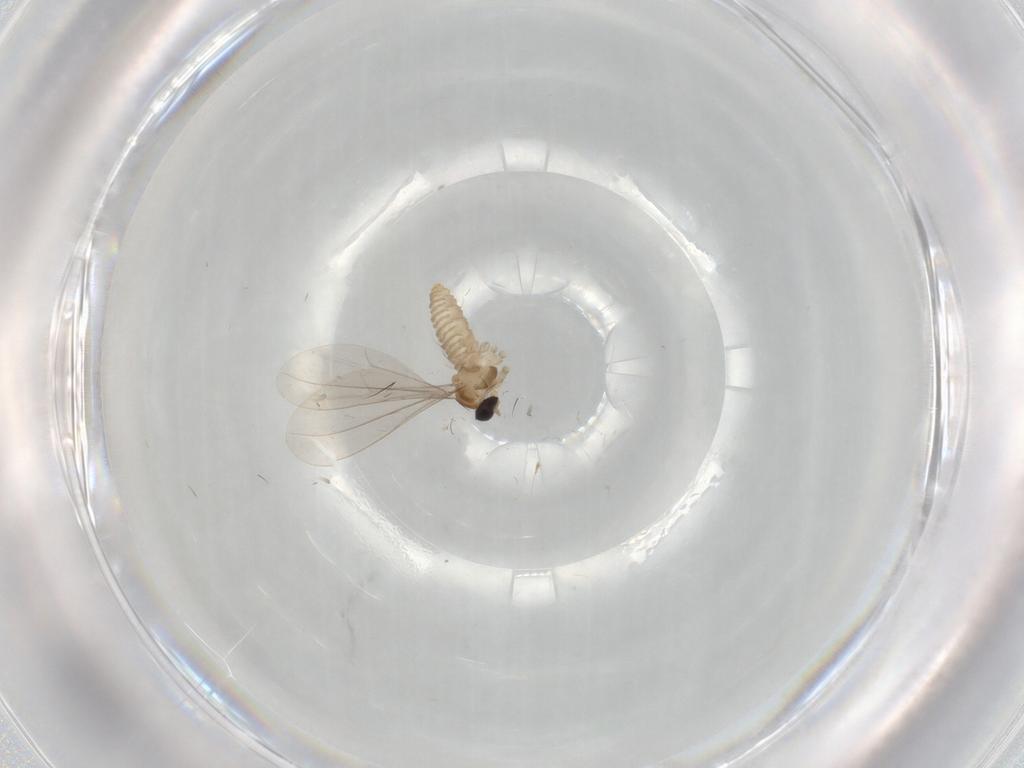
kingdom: Animalia
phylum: Arthropoda
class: Insecta
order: Diptera
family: Cecidomyiidae
